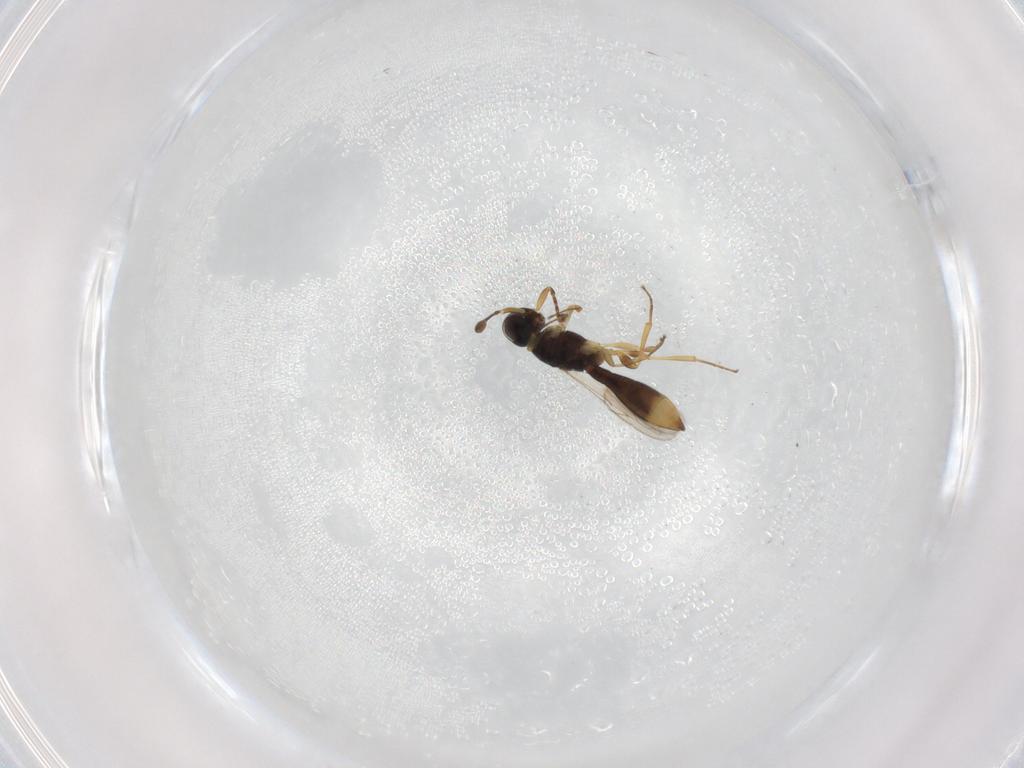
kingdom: Animalia
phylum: Arthropoda
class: Insecta
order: Hymenoptera
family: Scelionidae
